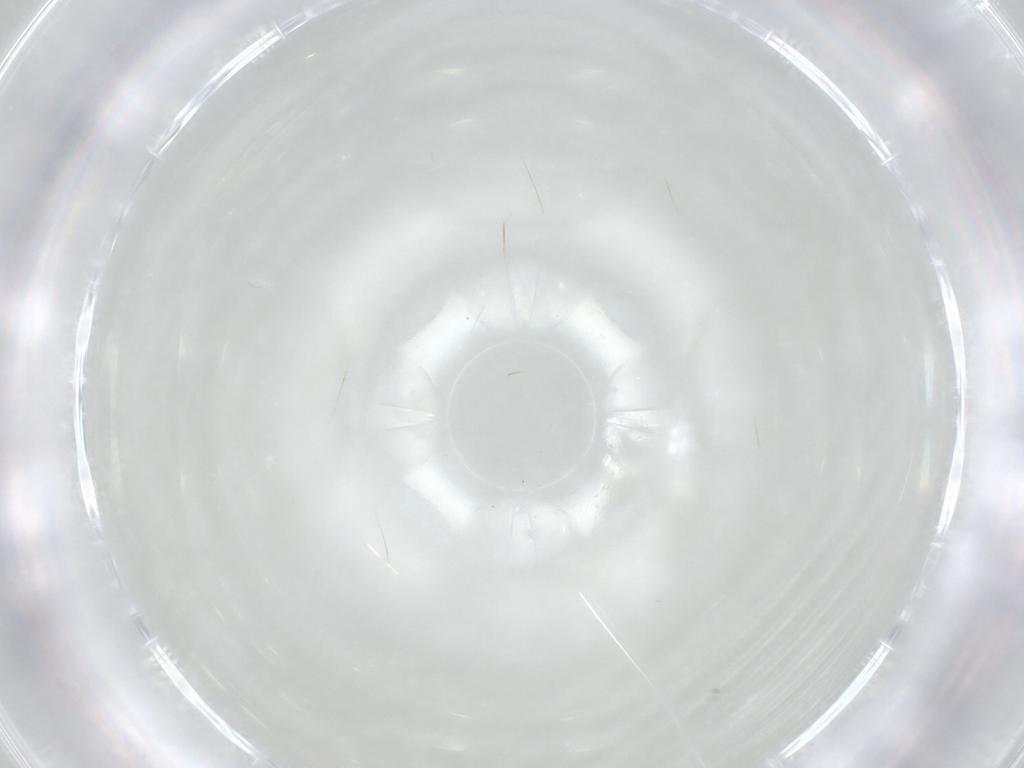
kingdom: Animalia
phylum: Arthropoda
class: Insecta
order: Hymenoptera
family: Mymaridae
